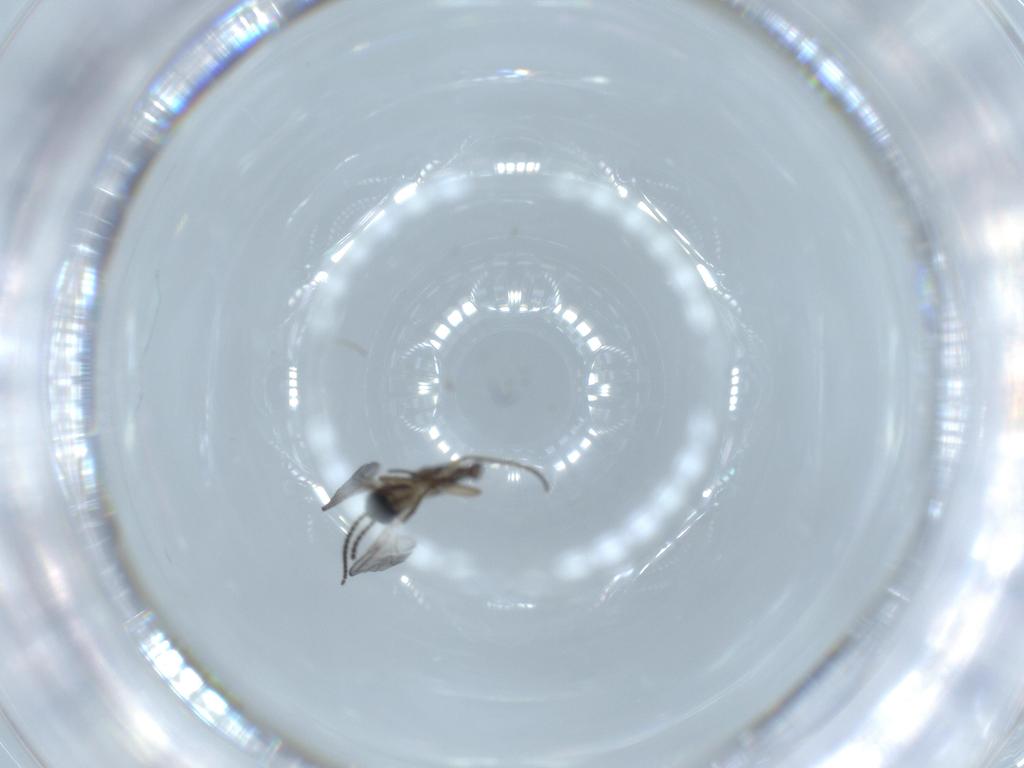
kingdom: Animalia
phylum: Arthropoda
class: Insecta
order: Diptera
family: Sciaridae
